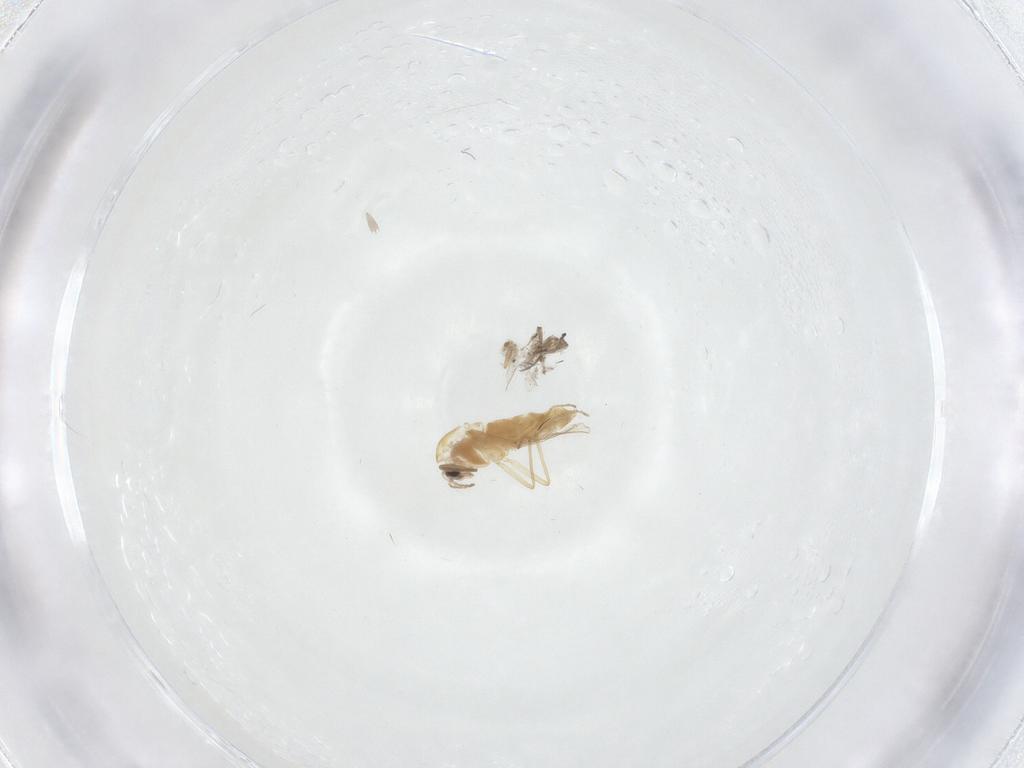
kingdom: Animalia
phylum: Arthropoda
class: Insecta
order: Diptera
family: Chironomidae
